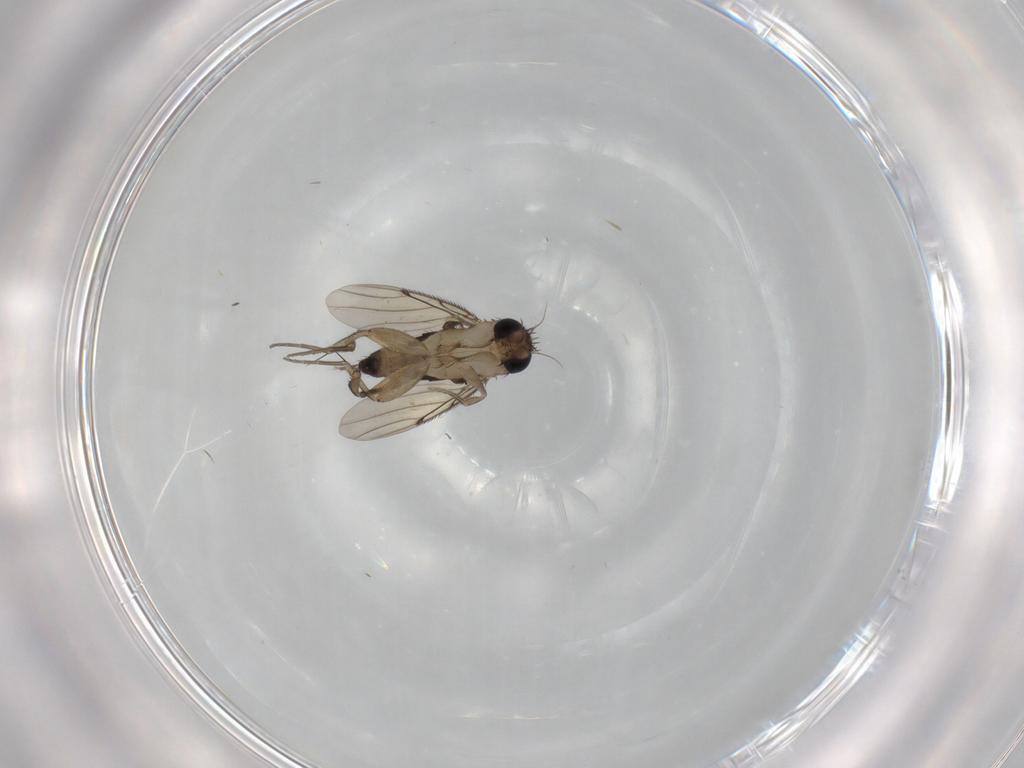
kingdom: Animalia
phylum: Arthropoda
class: Insecta
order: Diptera
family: Phoridae
